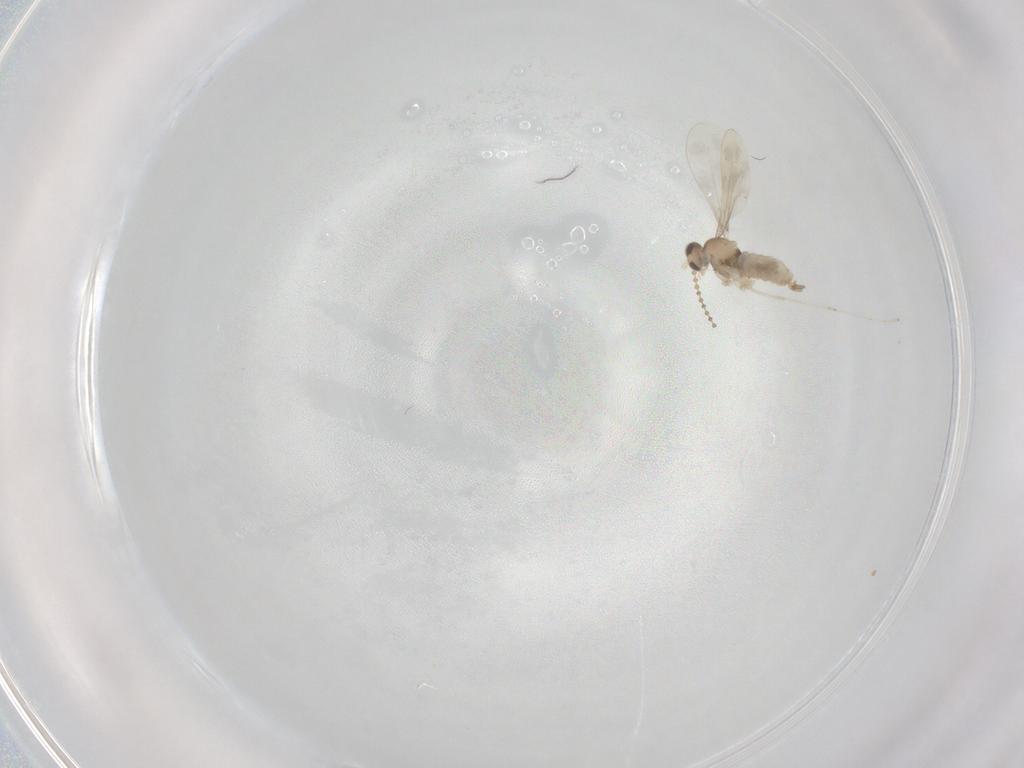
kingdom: Animalia
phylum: Arthropoda
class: Insecta
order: Diptera
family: Cecidomyiidae
